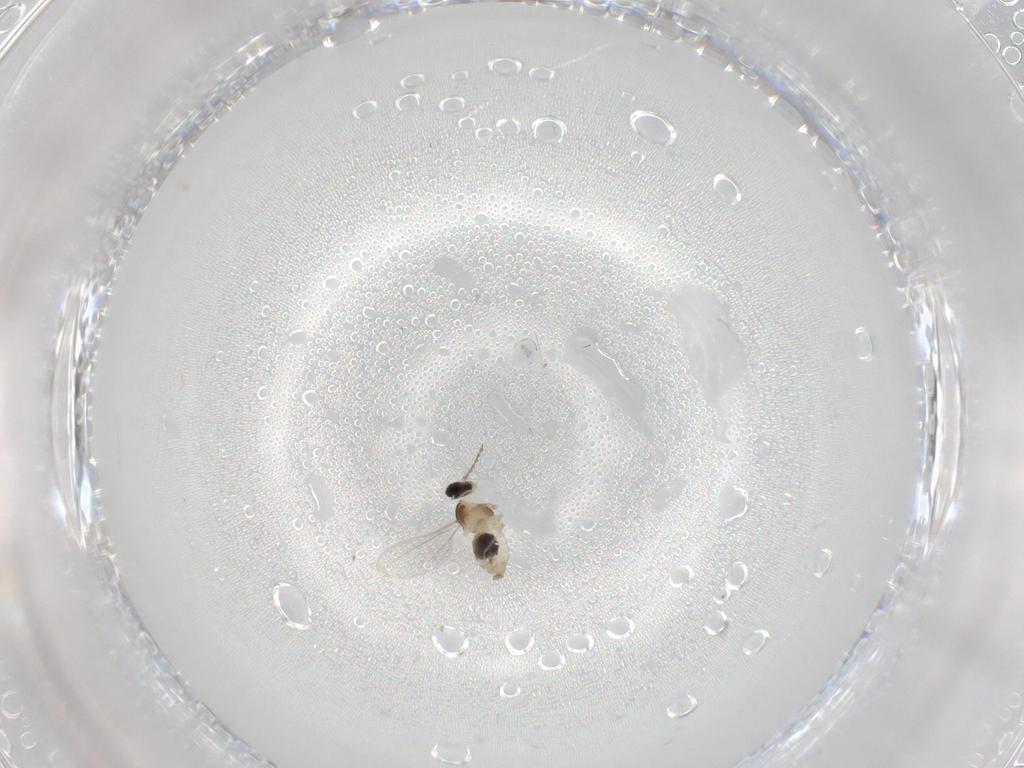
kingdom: Animalia
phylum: Arthropoda
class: Insecta
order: Diptera
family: Cecidomyiidae
